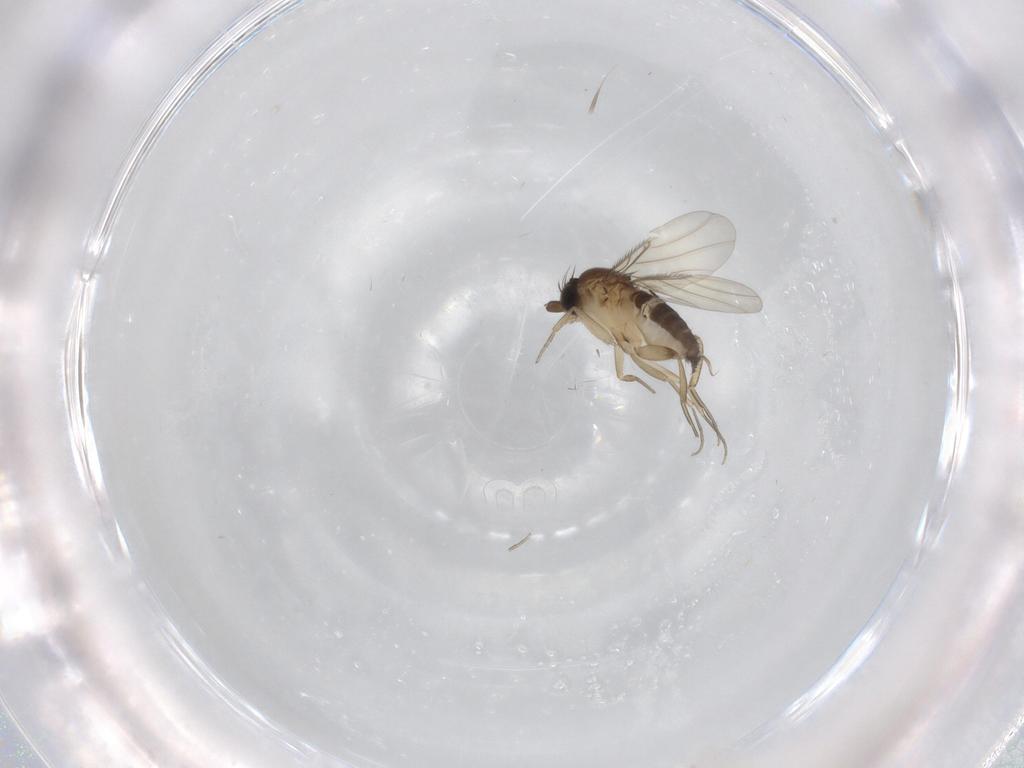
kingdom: Animalia
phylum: Arthropoda
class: Insecta
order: Diptera
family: Phoridae
